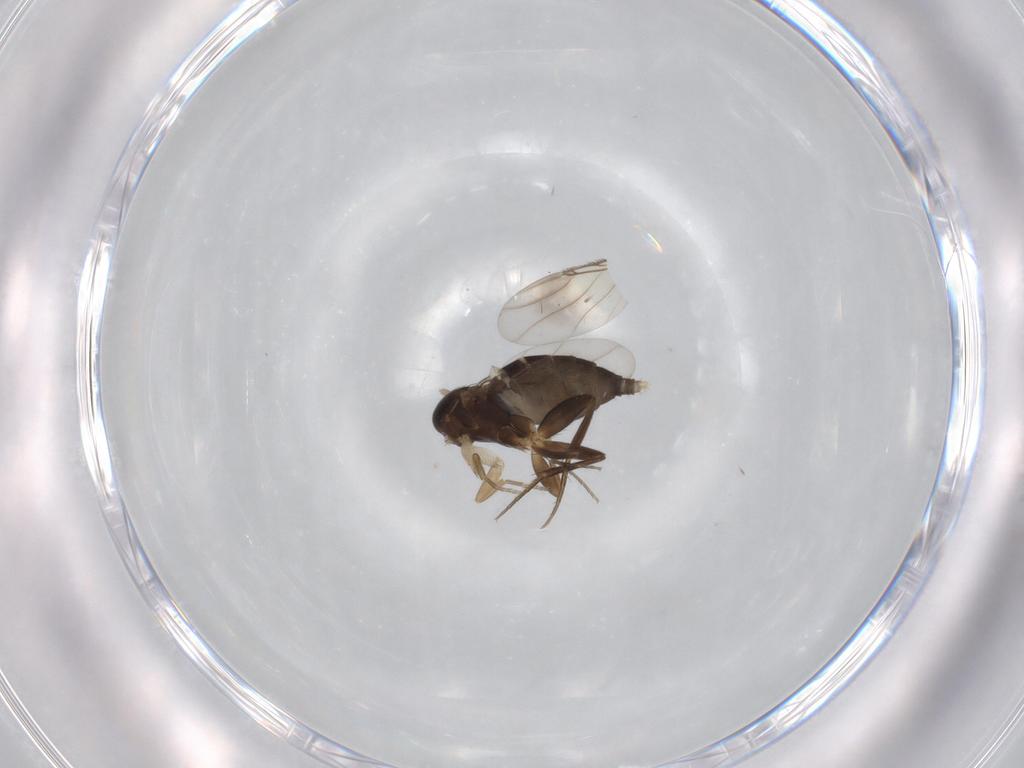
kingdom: Animalia
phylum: Arthropoda
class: Insecta
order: Diptera
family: Phoridae
